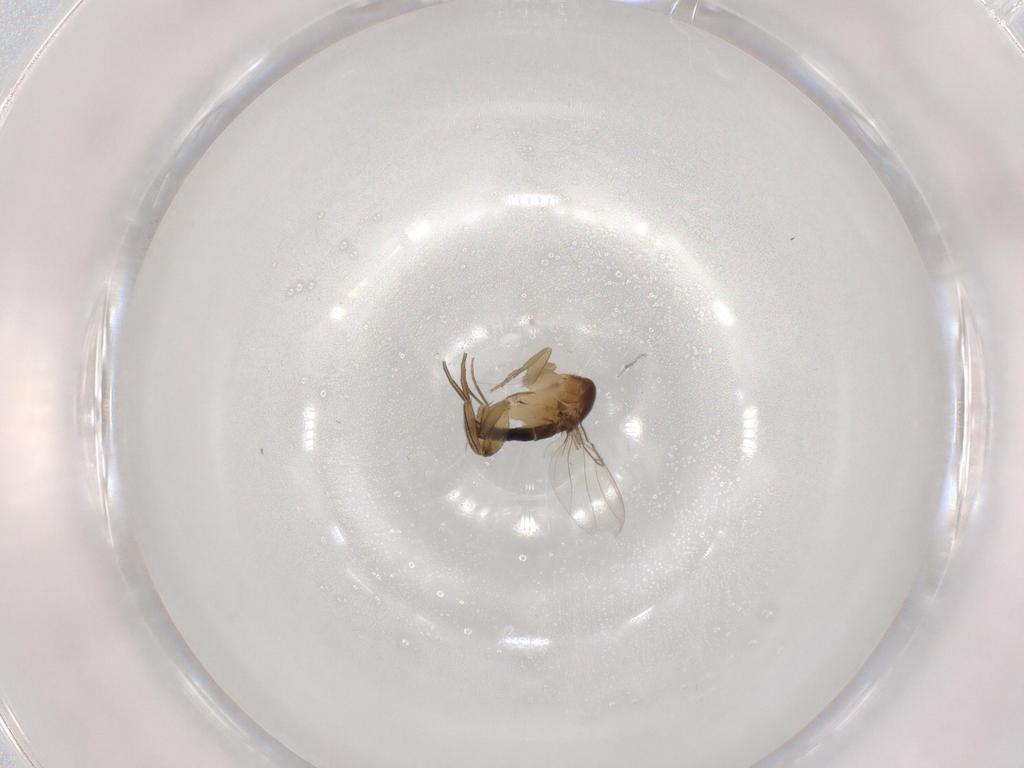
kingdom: Animalia
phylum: Arthropoda
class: Insecta
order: Diptera
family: Phoridae
